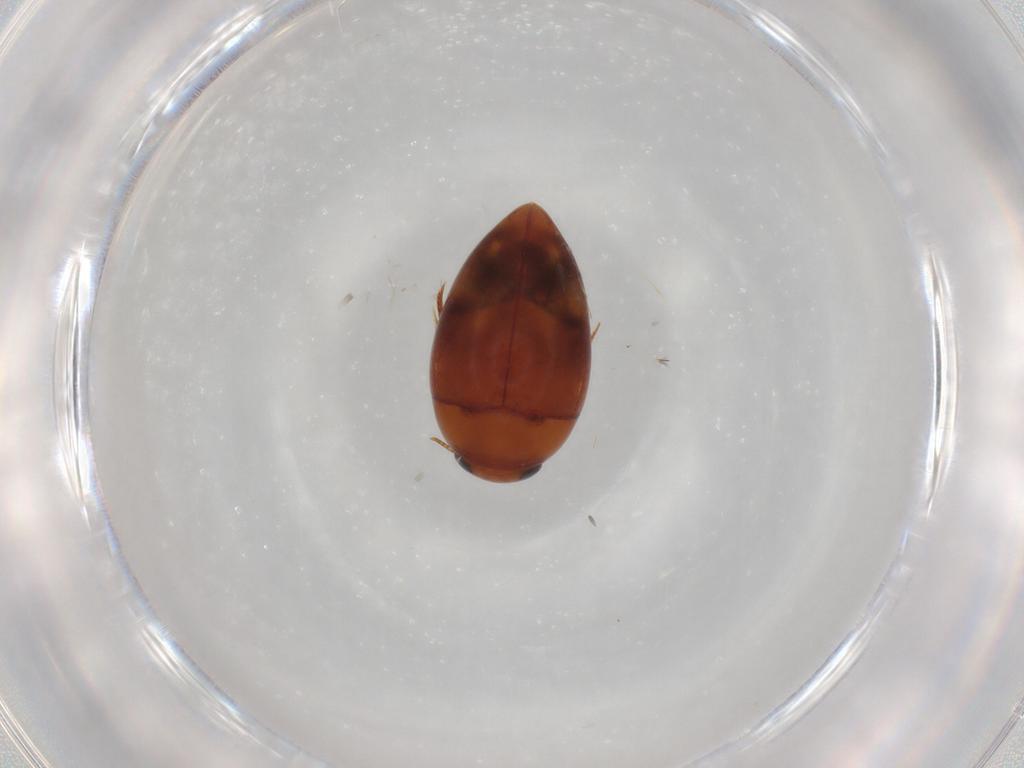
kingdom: Animalia
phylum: Arthropoda
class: Insecta
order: Coleoptera
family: Noteridae
